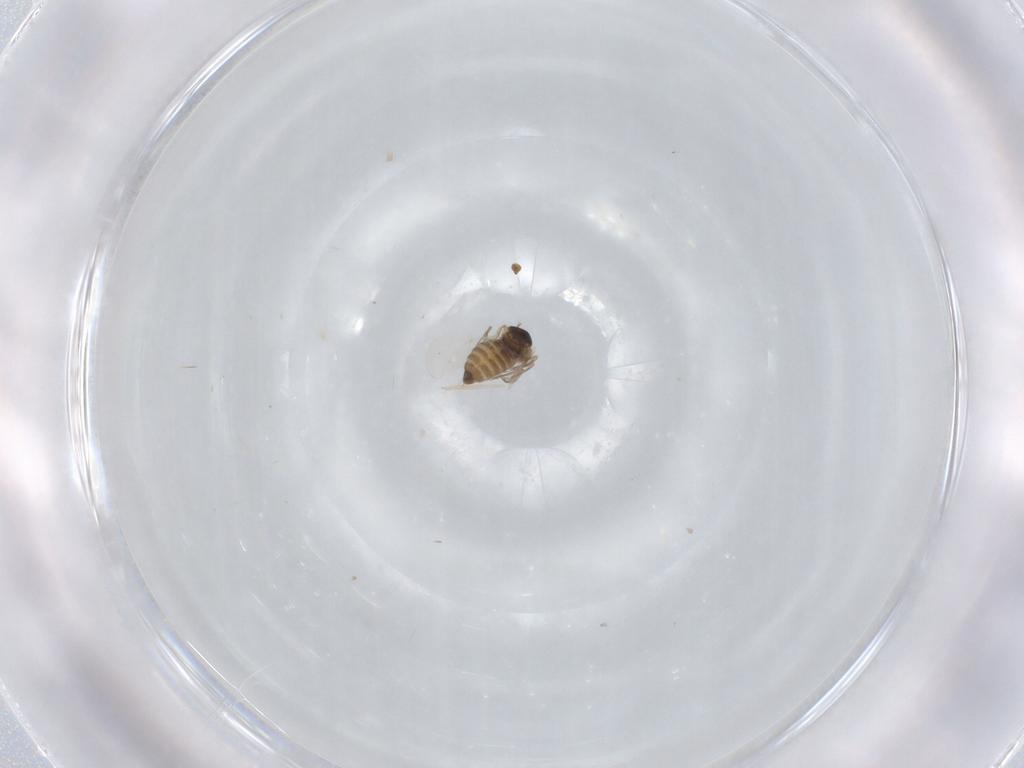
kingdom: Animalia
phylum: Arthropoda
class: Insecta
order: Diptera
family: Cecidomyiidae
